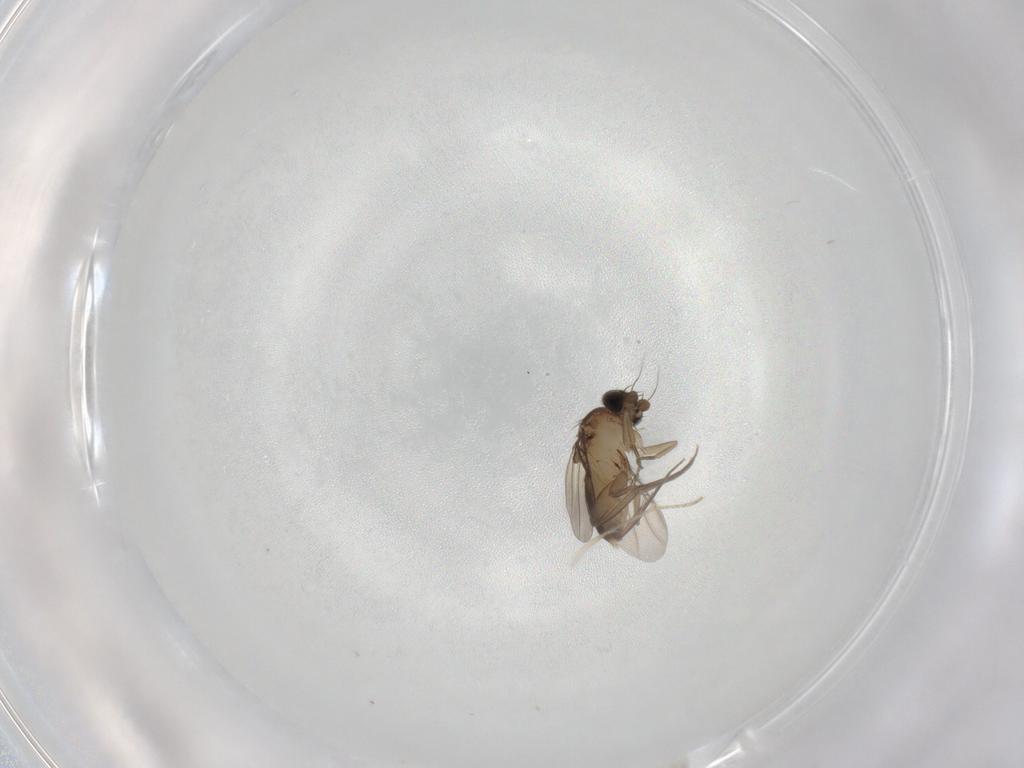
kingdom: Animalia
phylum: Arthropoda
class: Insecta
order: Diptera
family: Phoridae
